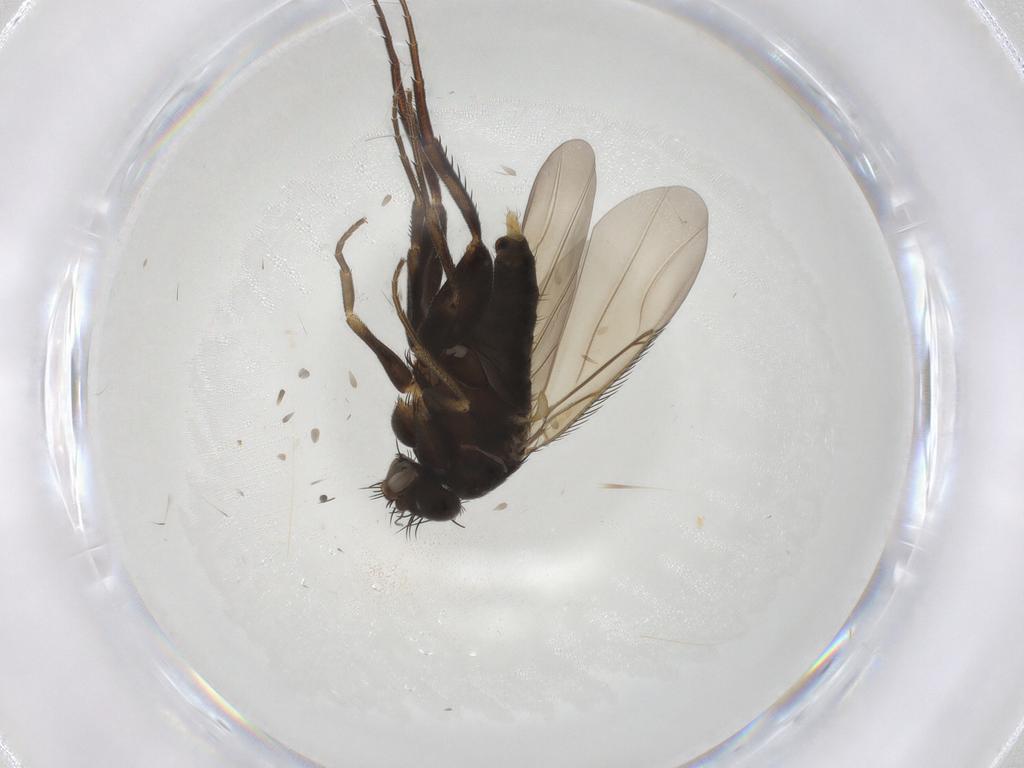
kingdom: Animalia
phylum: Arthropoda
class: Insecta
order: Diptera
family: Phoridae
